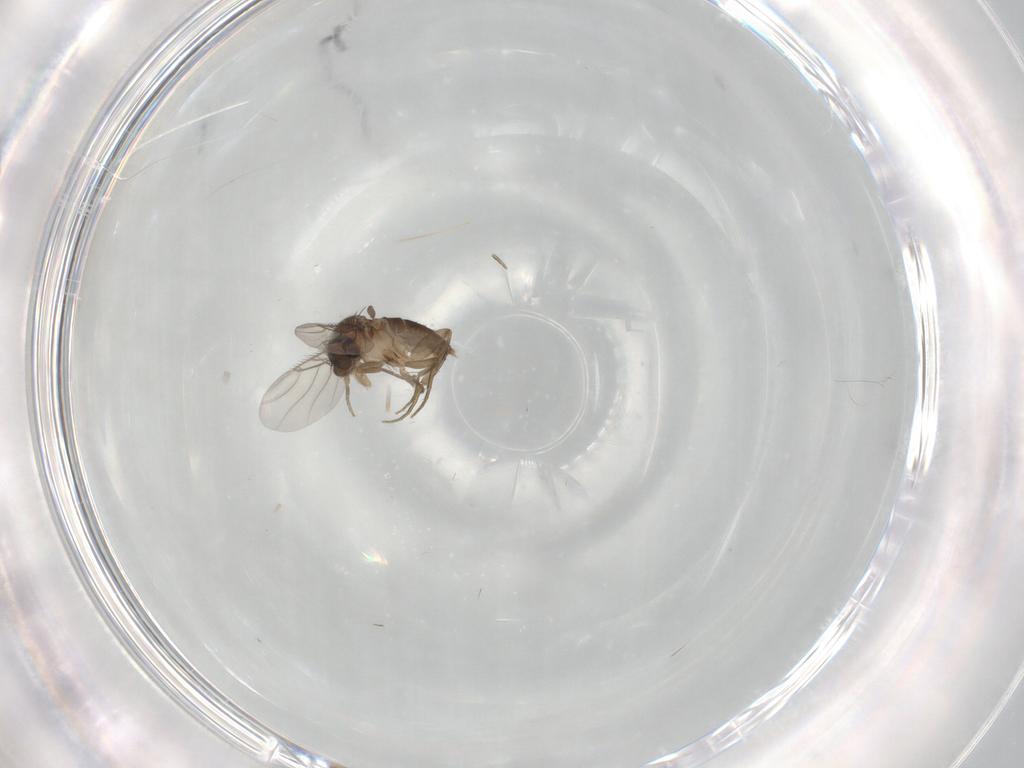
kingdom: Animalia
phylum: Arthropoda
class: Insecta
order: Diptera
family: Phoridae
